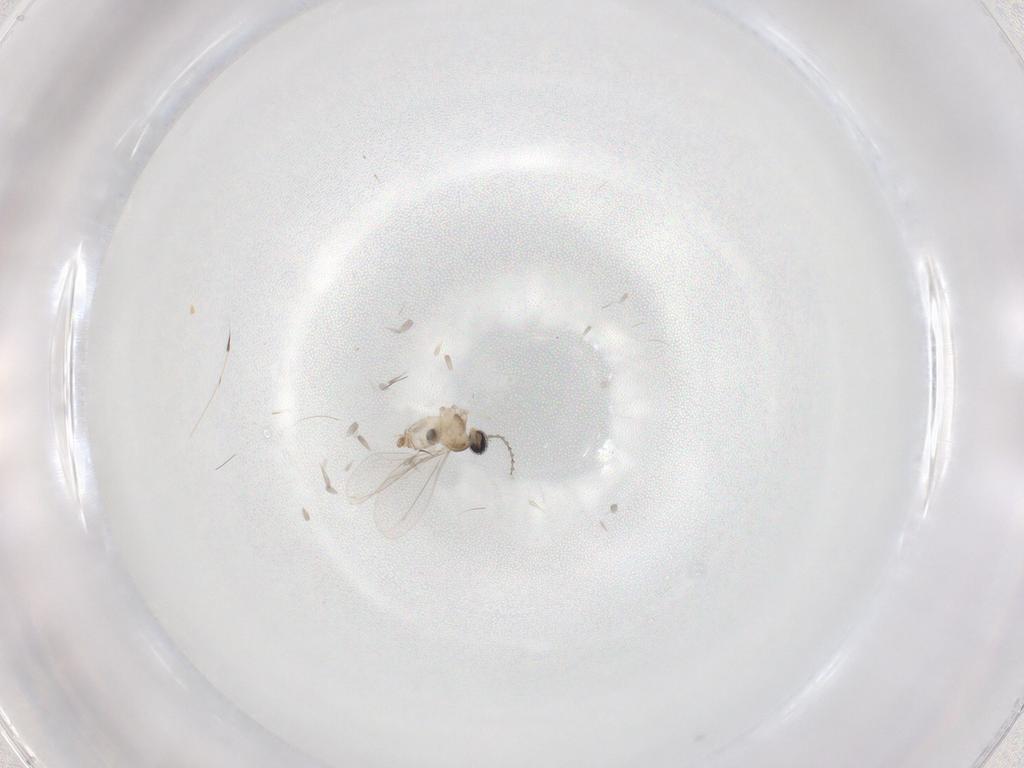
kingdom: Animalia
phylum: Arthropoda
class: Insecta
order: Diptera
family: Cecidomyiidae
